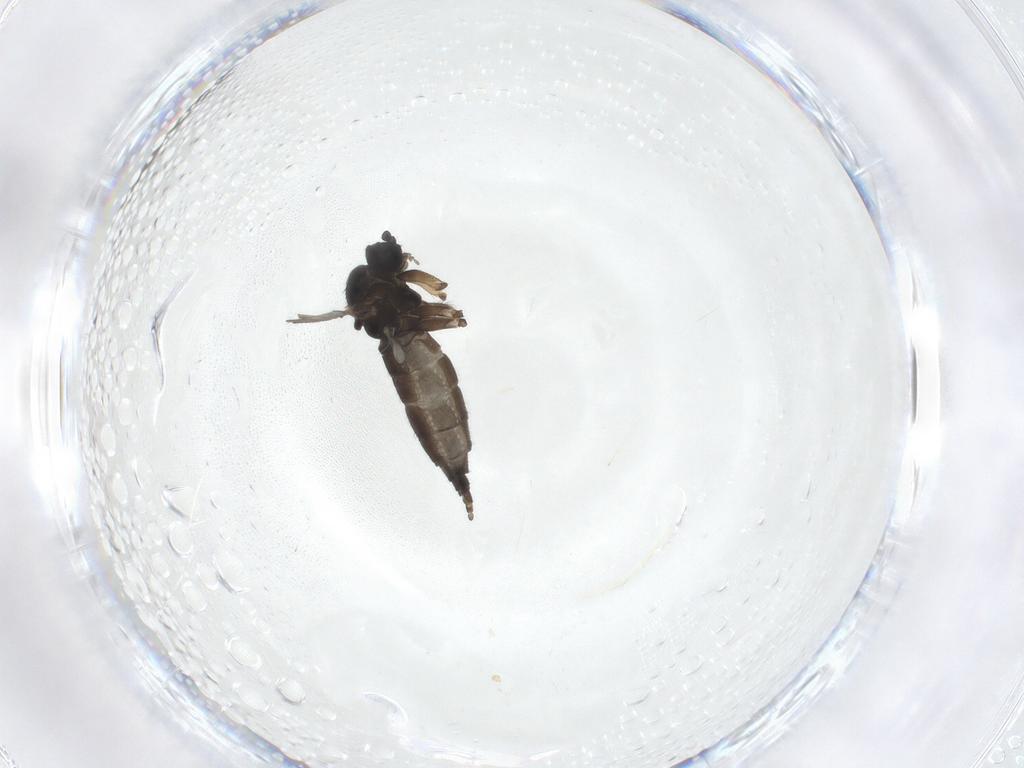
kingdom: Animalia
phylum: Arthropoda
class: Insecta
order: Diptera
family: Sciaridae
